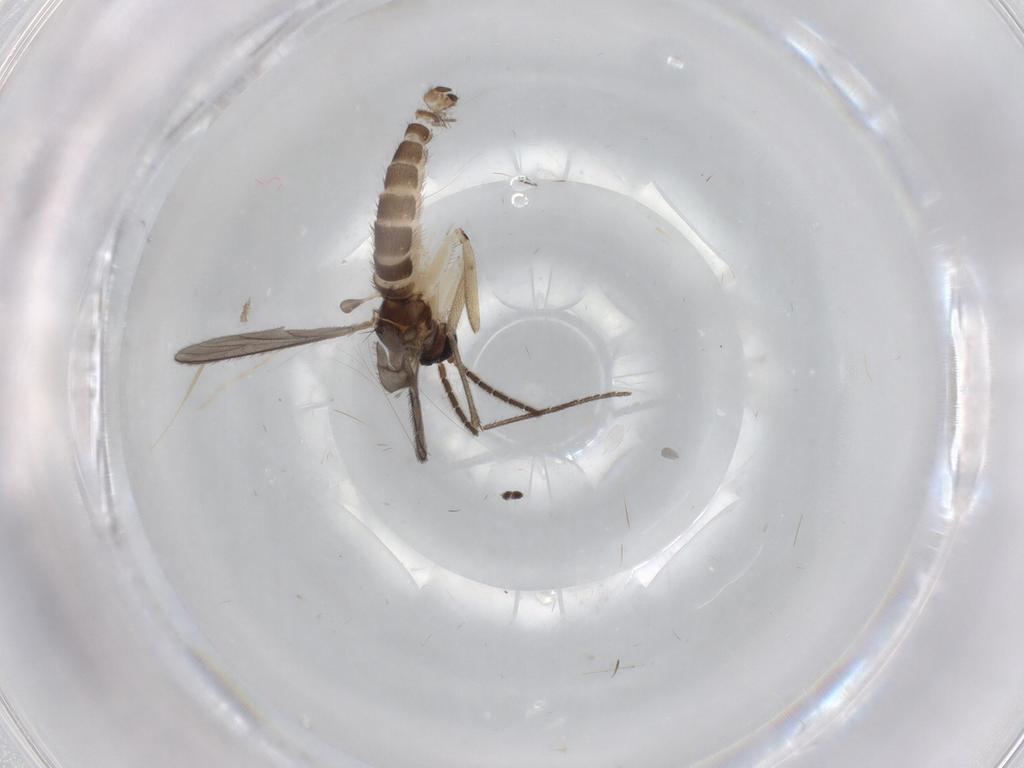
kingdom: Animalia
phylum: Arthropoda
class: Insecta
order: Diptera
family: Sciaridae
